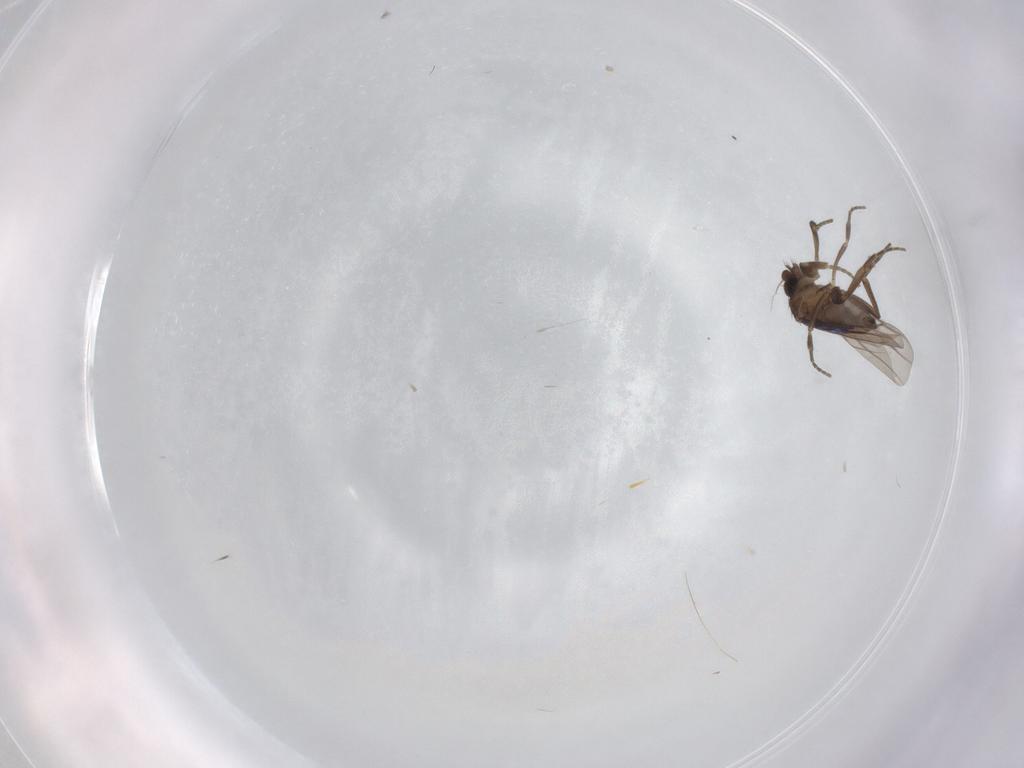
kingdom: Animalia
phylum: Arthropoda
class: Insecta
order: Diptera
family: Phoridae
